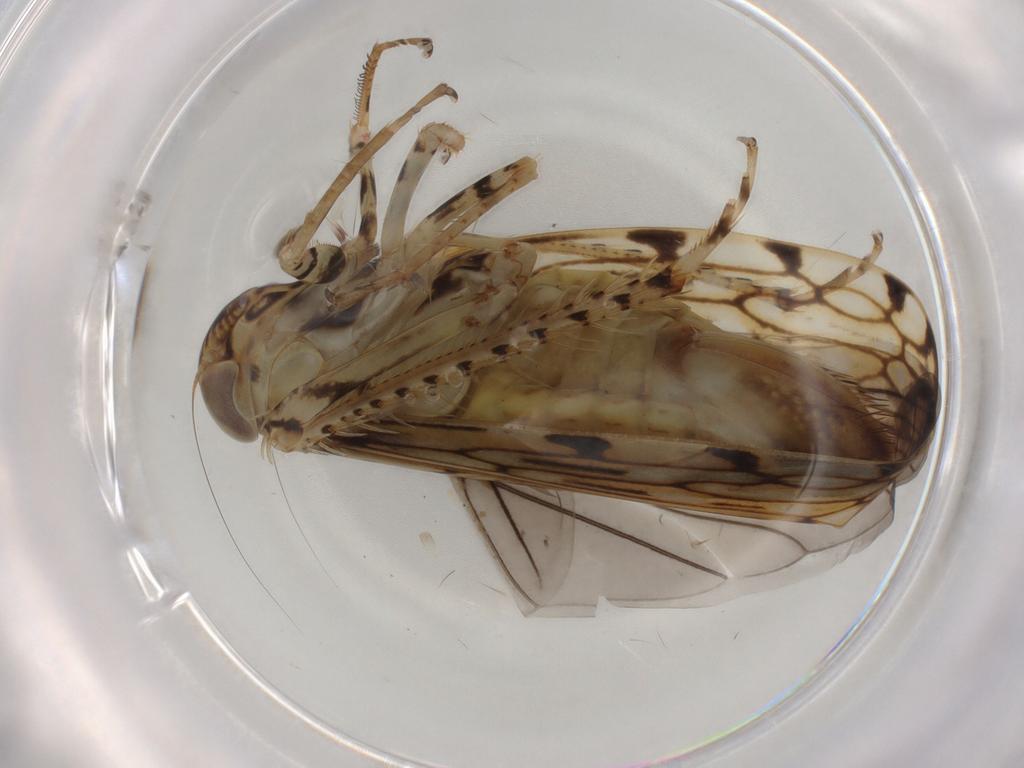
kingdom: Animalia
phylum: Arthropoda
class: Insecta
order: Hemiptera
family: Cicadellidae
